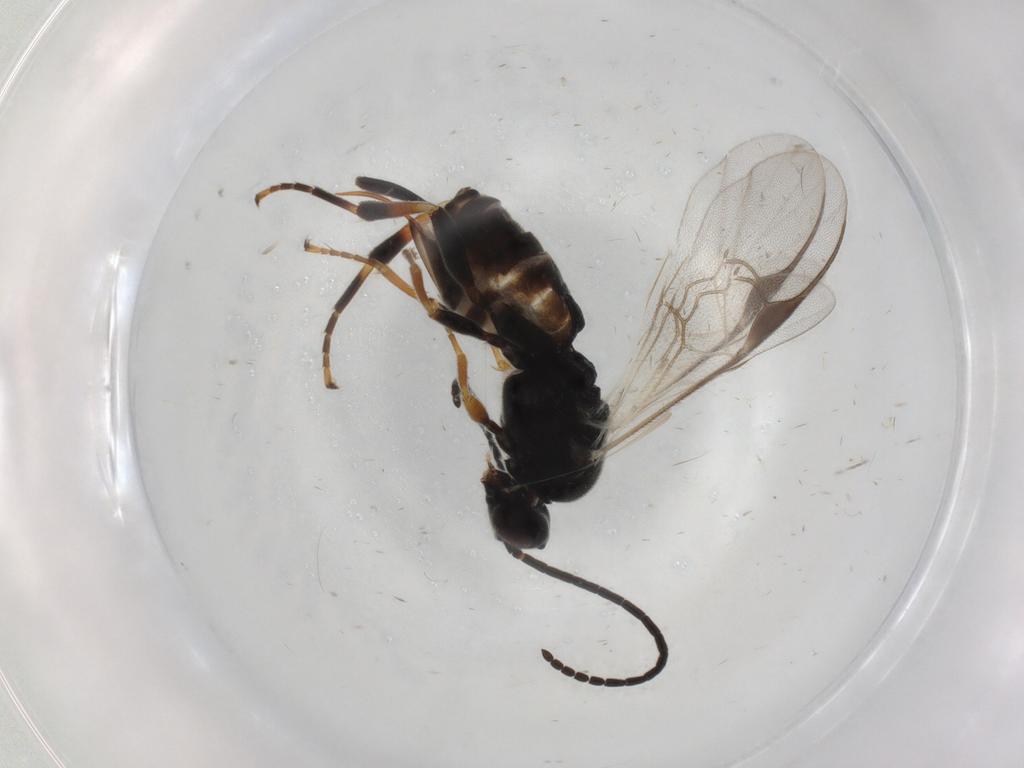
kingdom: Animalia
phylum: Arthropoda
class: Insecta
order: Hymenoptera
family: Braconidae
